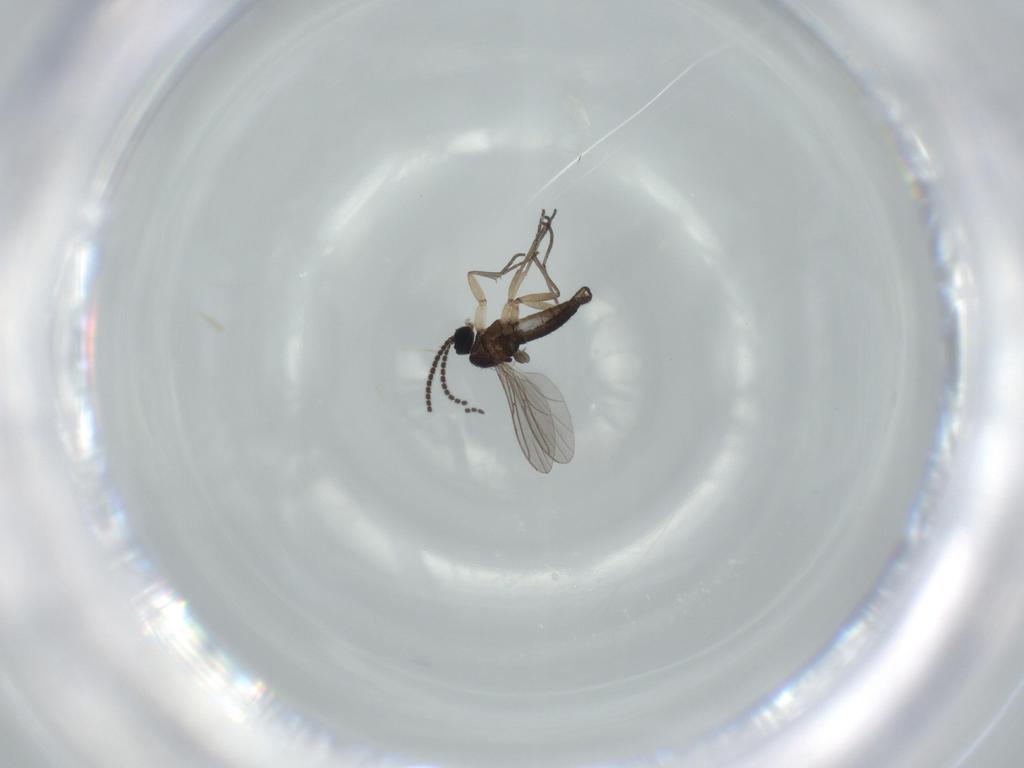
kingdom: Animalia
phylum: Arthropoda
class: Insecta
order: Diptera
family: Sciaridae
